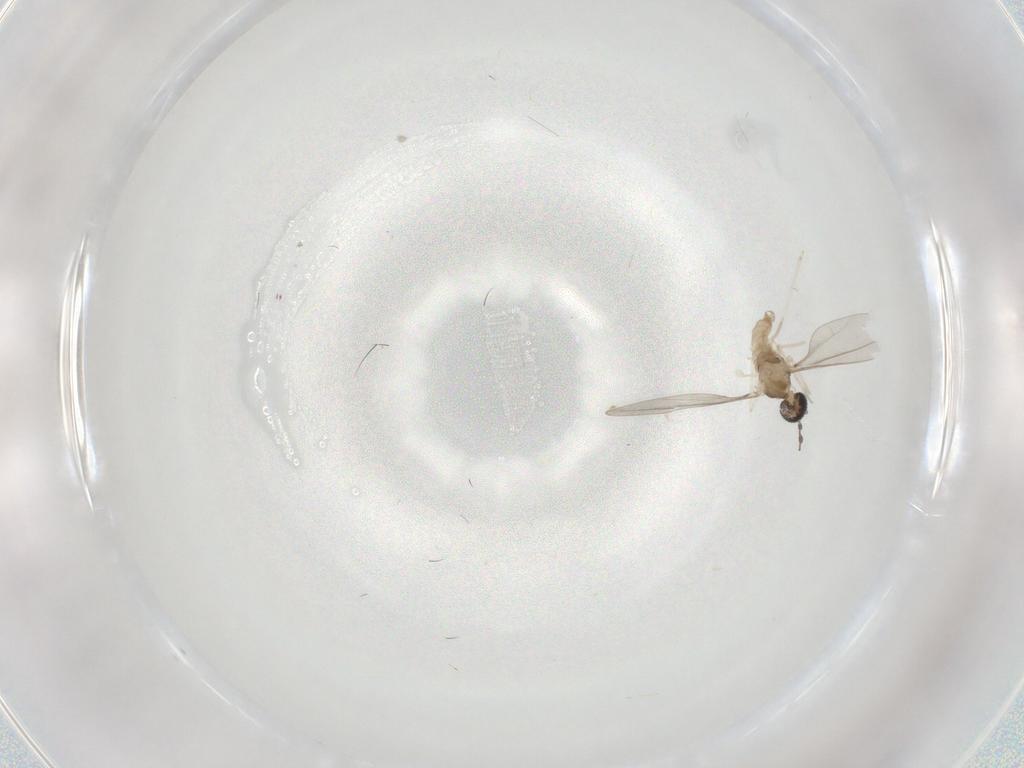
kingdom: Animalia
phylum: Arthropoda
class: Insecta
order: Diptera
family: Cecidomyiidae
